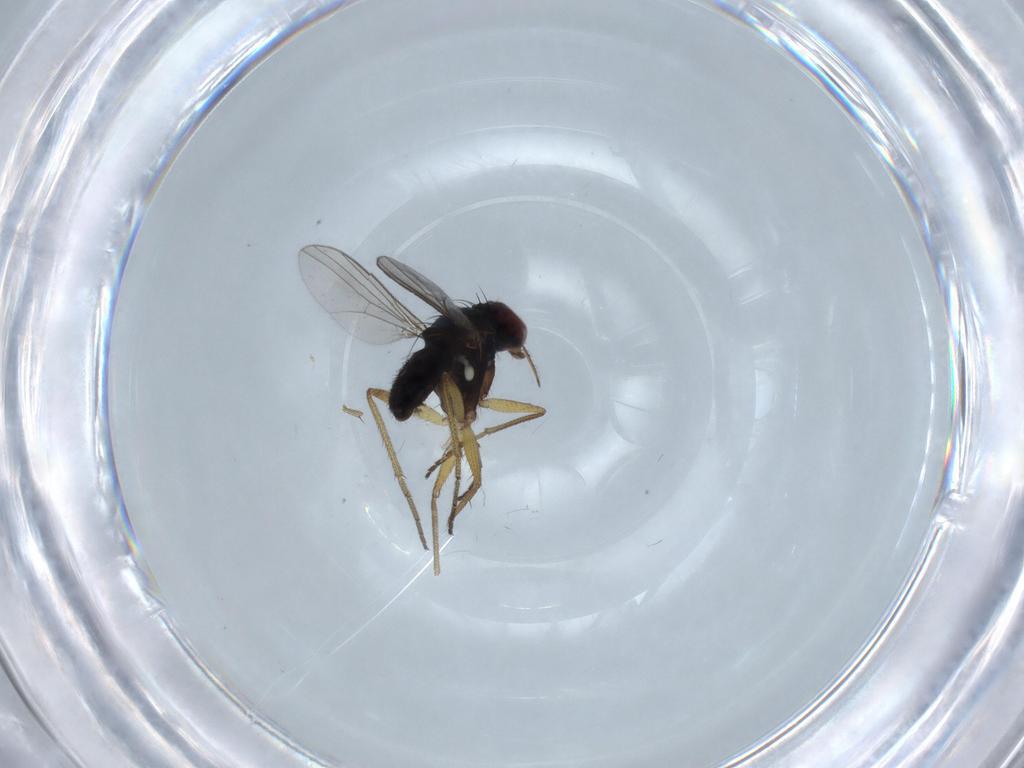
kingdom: Animalia
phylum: Arthropoda
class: Insecta
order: Diptera
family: Dolichopodidae
